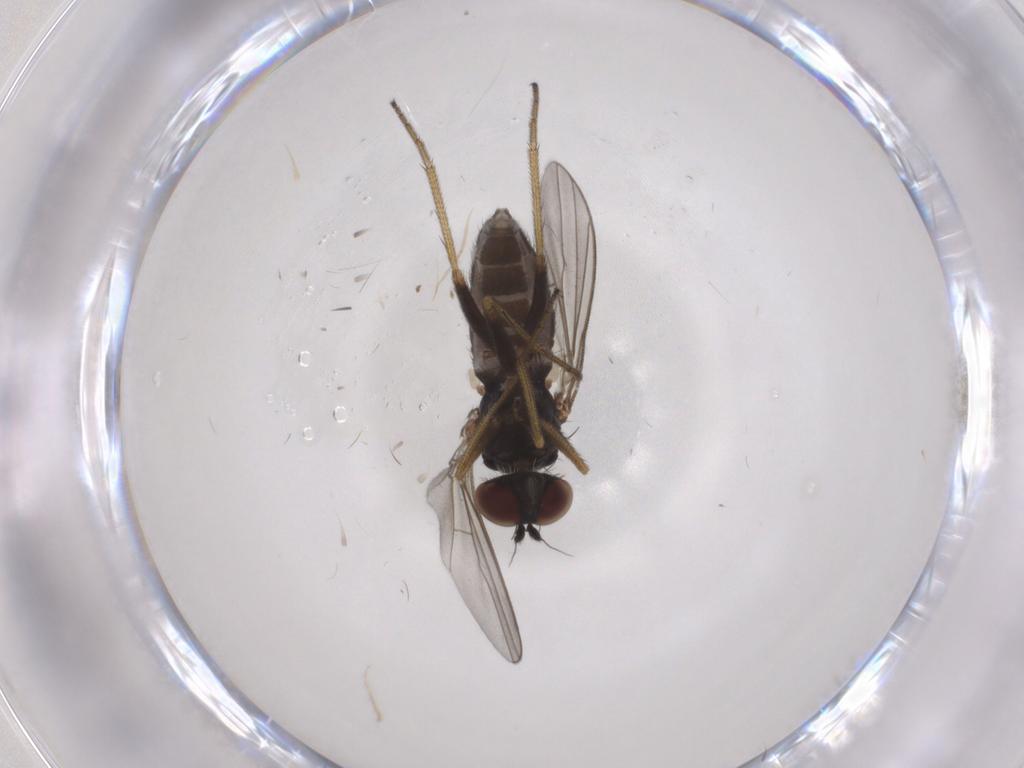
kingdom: Animalia
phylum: Arthropoda
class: Insecta
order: Diptera
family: Dolichopodidae
